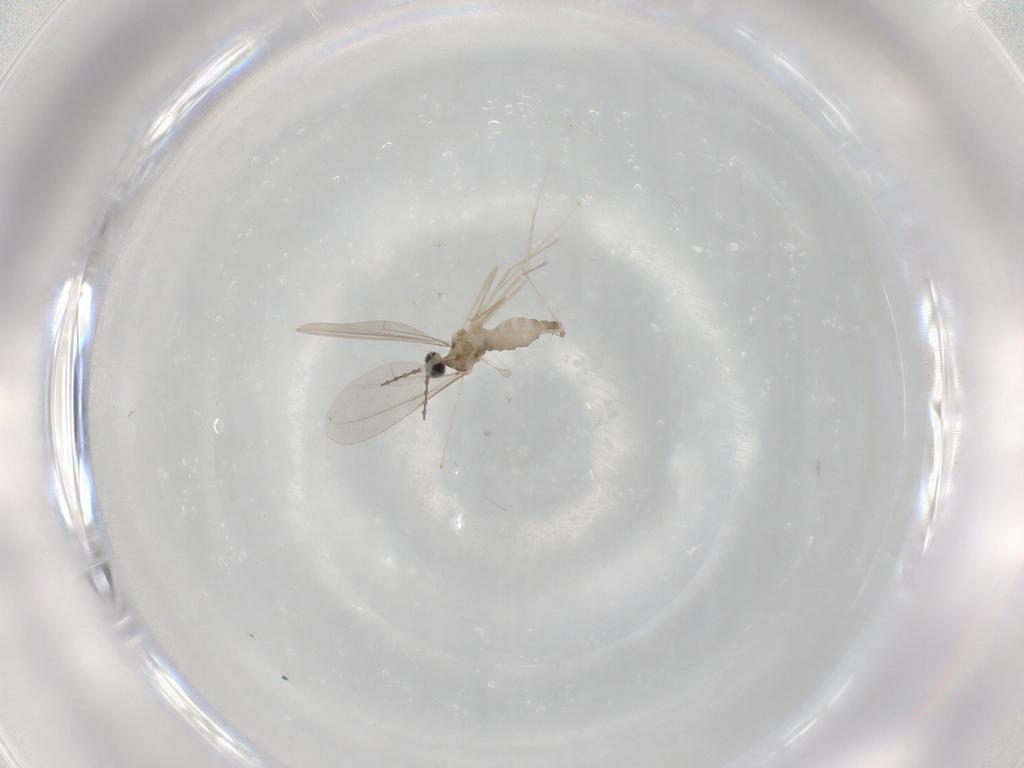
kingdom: Animalia
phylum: Arthropoda
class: Insecta
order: Diptera
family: Cecidomyiidae
